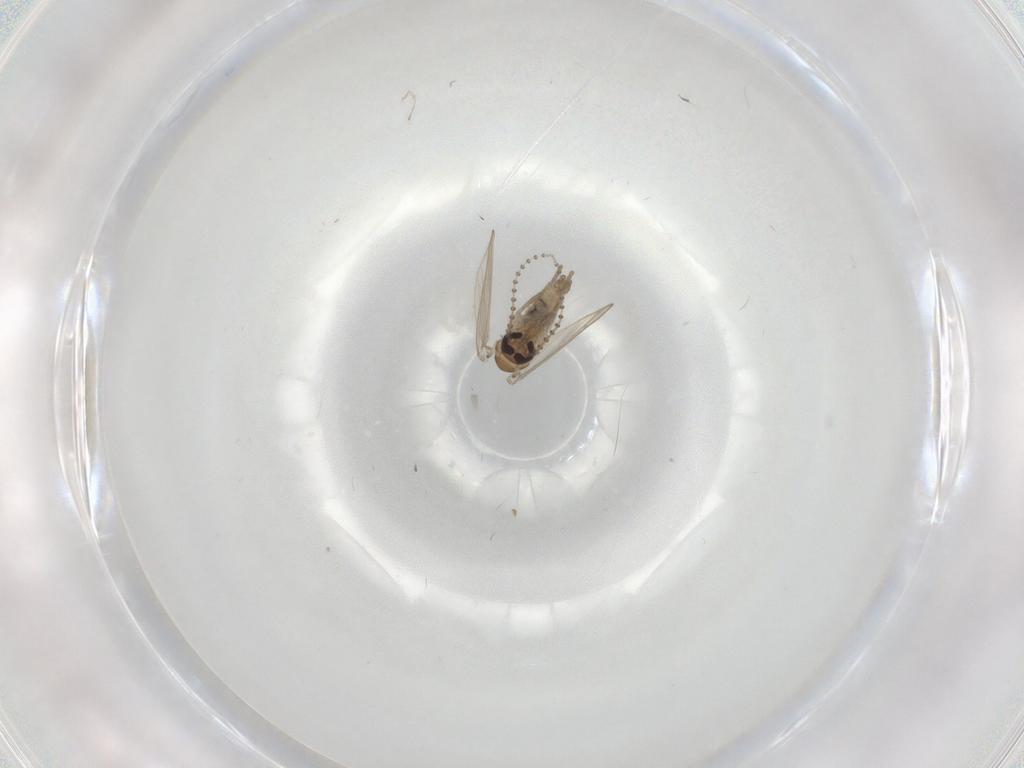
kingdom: Animalia
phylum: Arthropoda
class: Insecta
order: Diptera
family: Psychodidae
